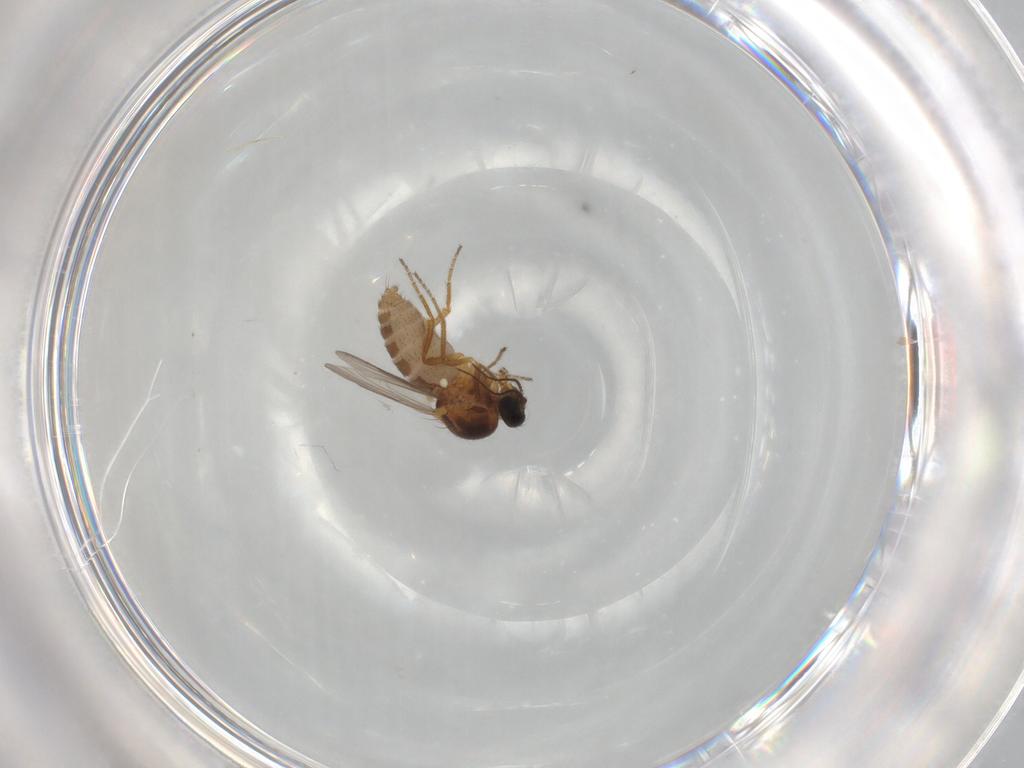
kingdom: Animalia
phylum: Arthropoda
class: Insecta
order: Diptera
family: Ceratopogonidae
